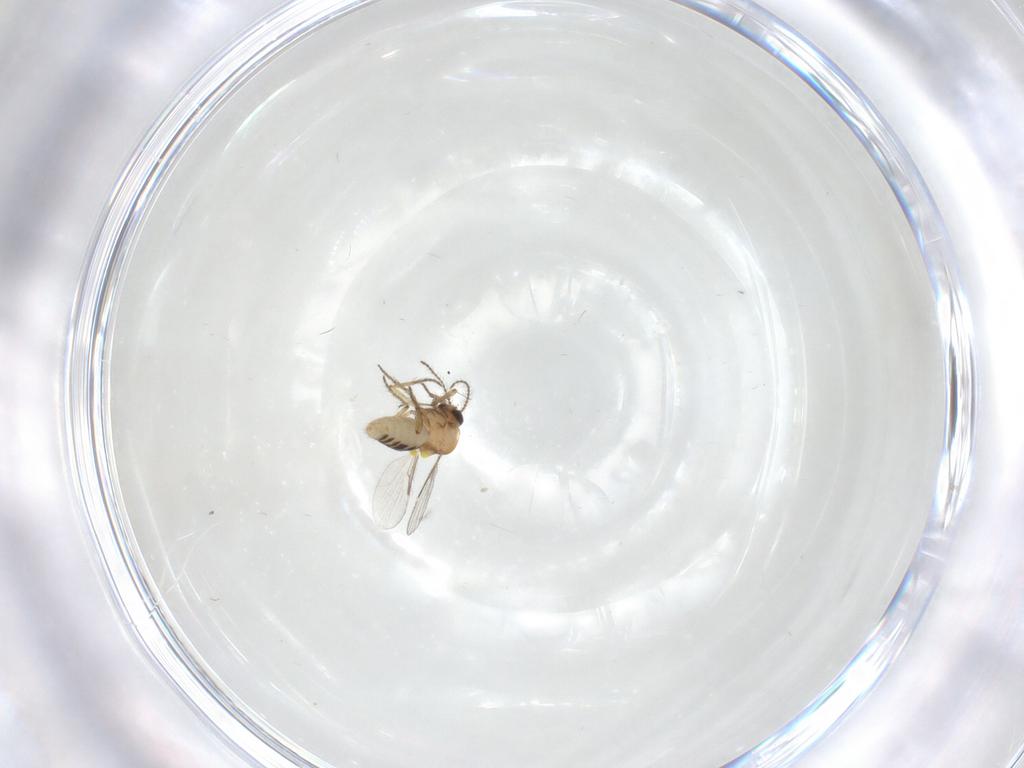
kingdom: Animalia
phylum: Arthropoda
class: Insecta
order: Diptera
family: Ceratopogonidae
